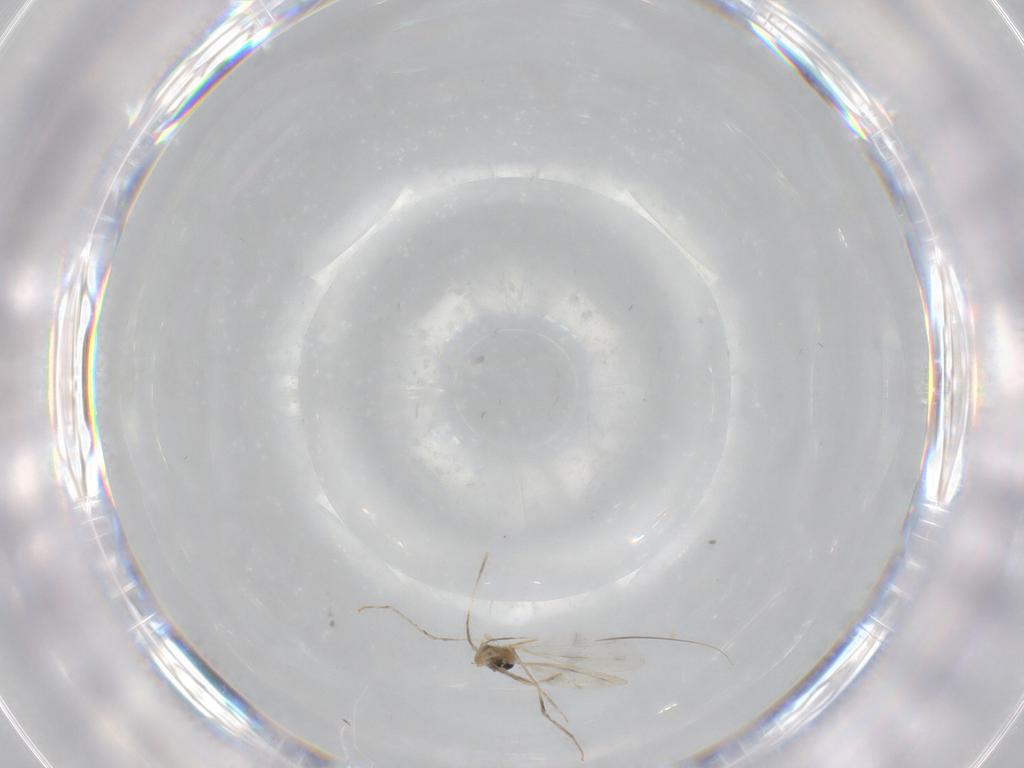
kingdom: Animalia
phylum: Arthropoda
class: Insecta
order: Diptera
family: Cecidomyiidae
